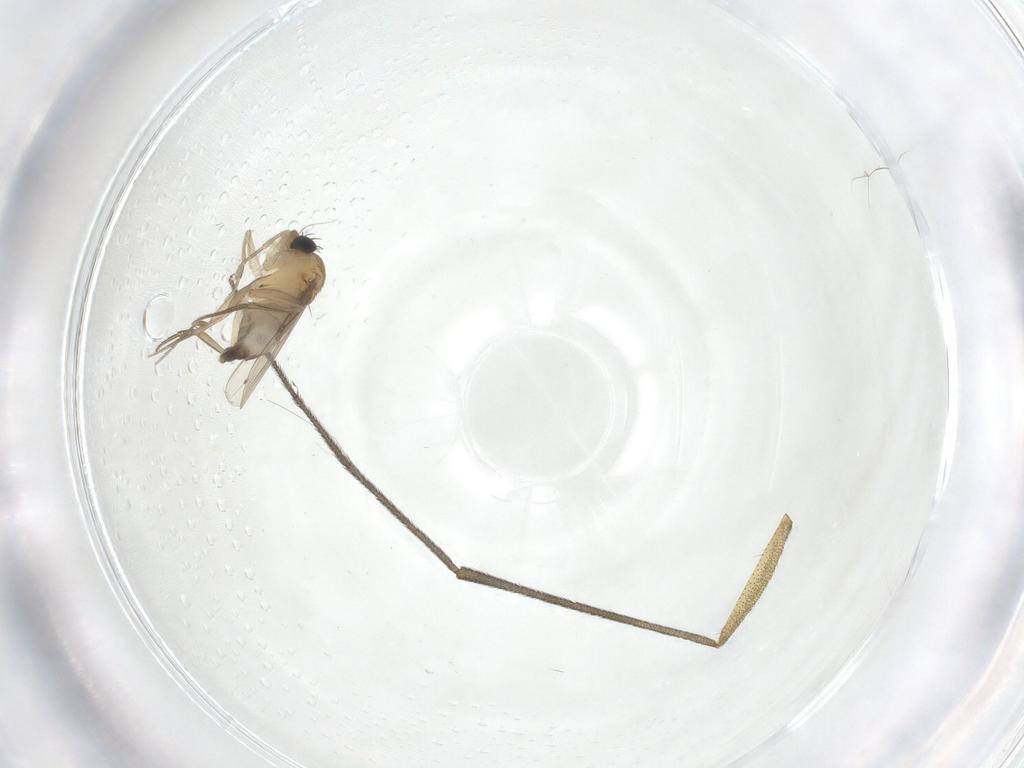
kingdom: Animalia
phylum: Arthropoda
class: Insecta
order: Diptera
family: Ditomyiidae
